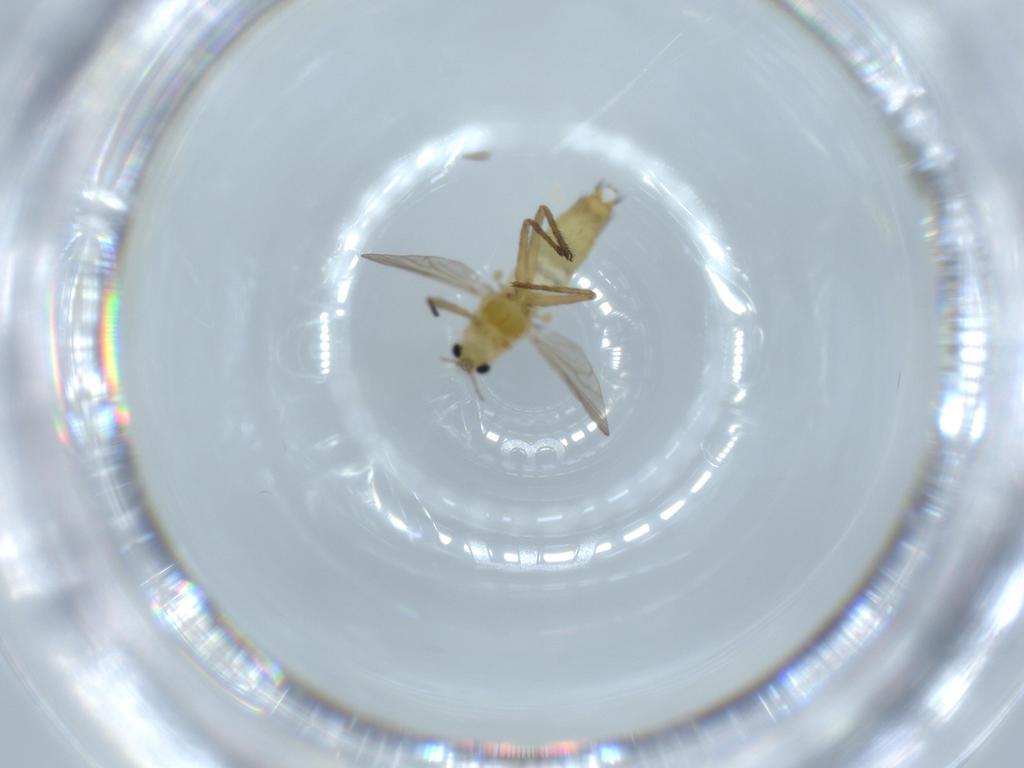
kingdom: Animalia
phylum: Arthropoda
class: Insecta
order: Diptera
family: Chironomidae
